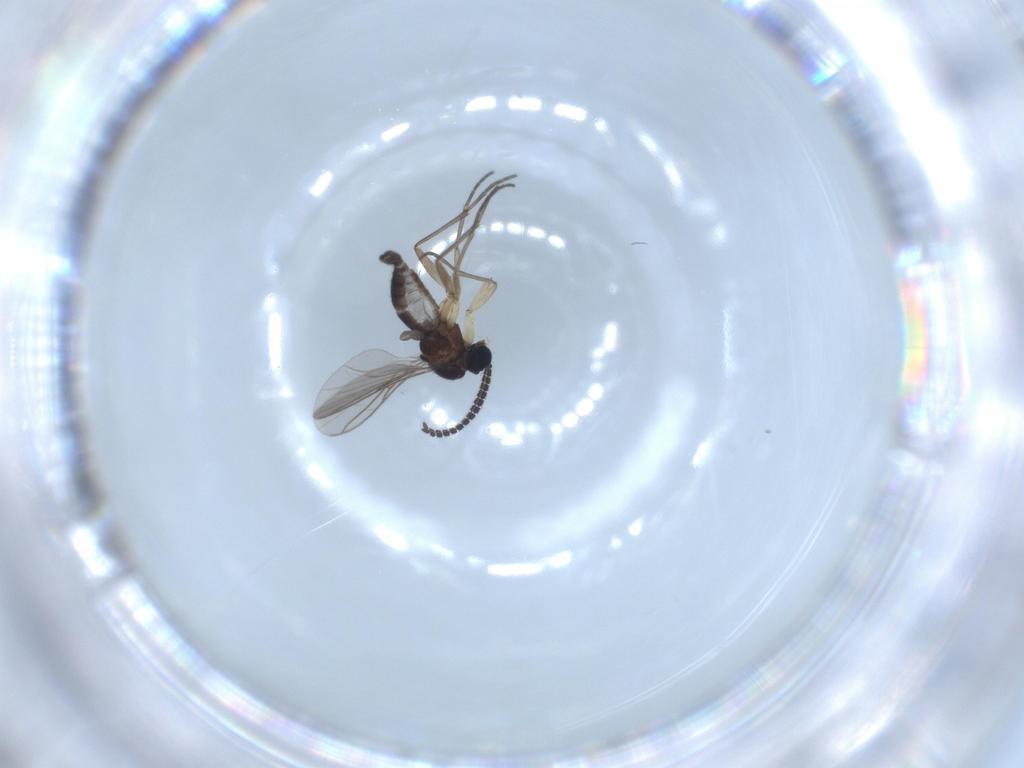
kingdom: Animalia
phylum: Arthropoda
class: Insecta
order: Diptera
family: Sciaridae
